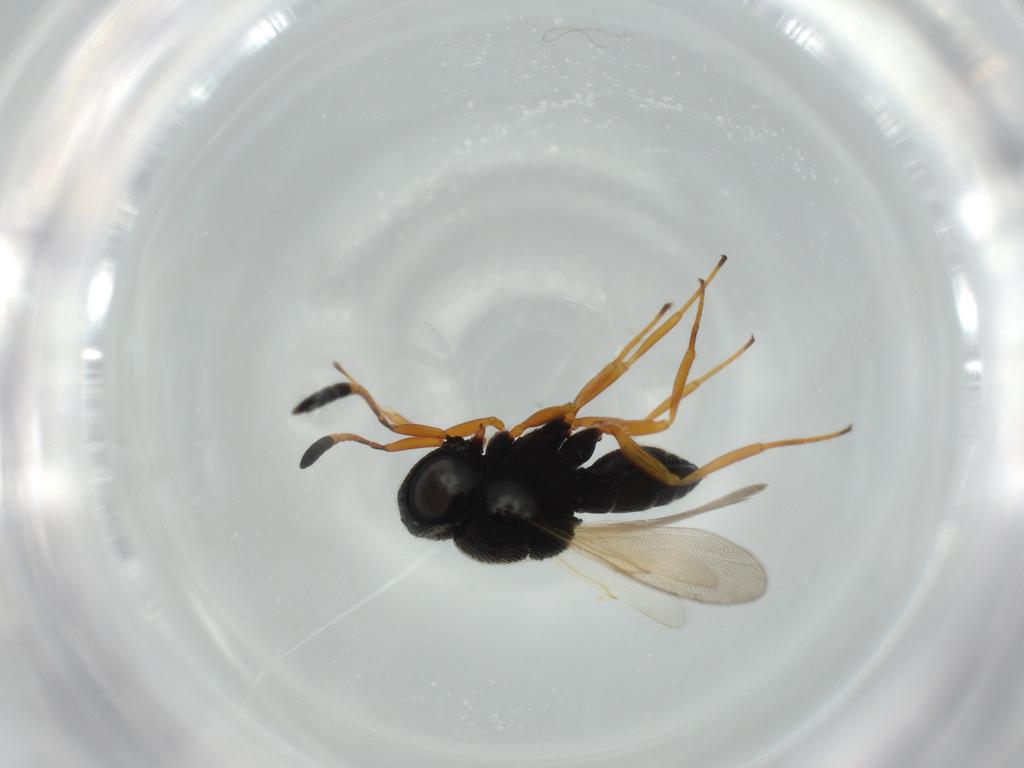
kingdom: Animalia
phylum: Arthropoda
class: Insecta
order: Hymenoptera
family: Scelionidae
